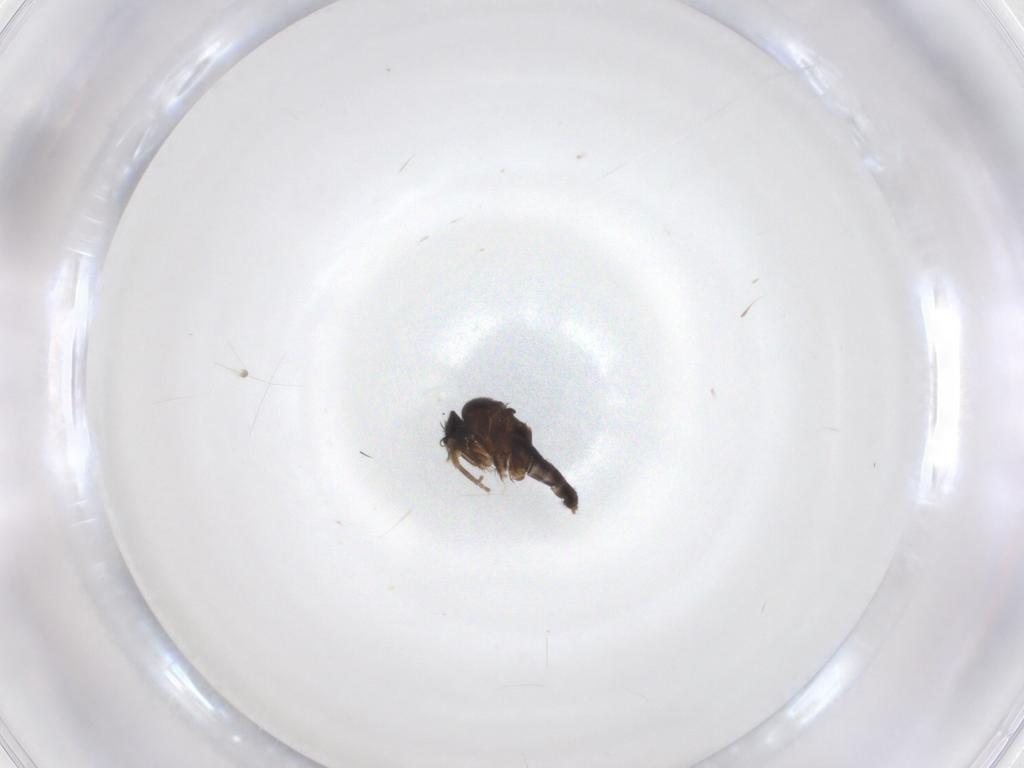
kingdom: Animalia
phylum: Arthropoda
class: Insecta
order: Diptera
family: Phoridae
